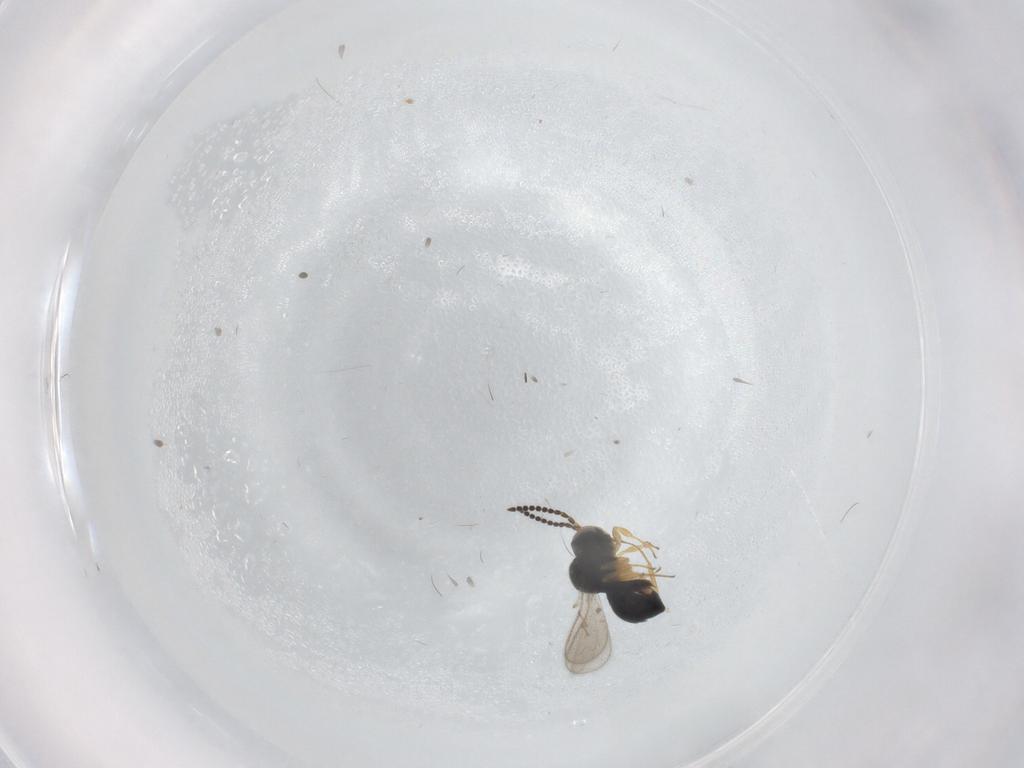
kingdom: Animalia
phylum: Arthropoda
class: Insecta
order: Hymenoptera
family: Scelionidae
